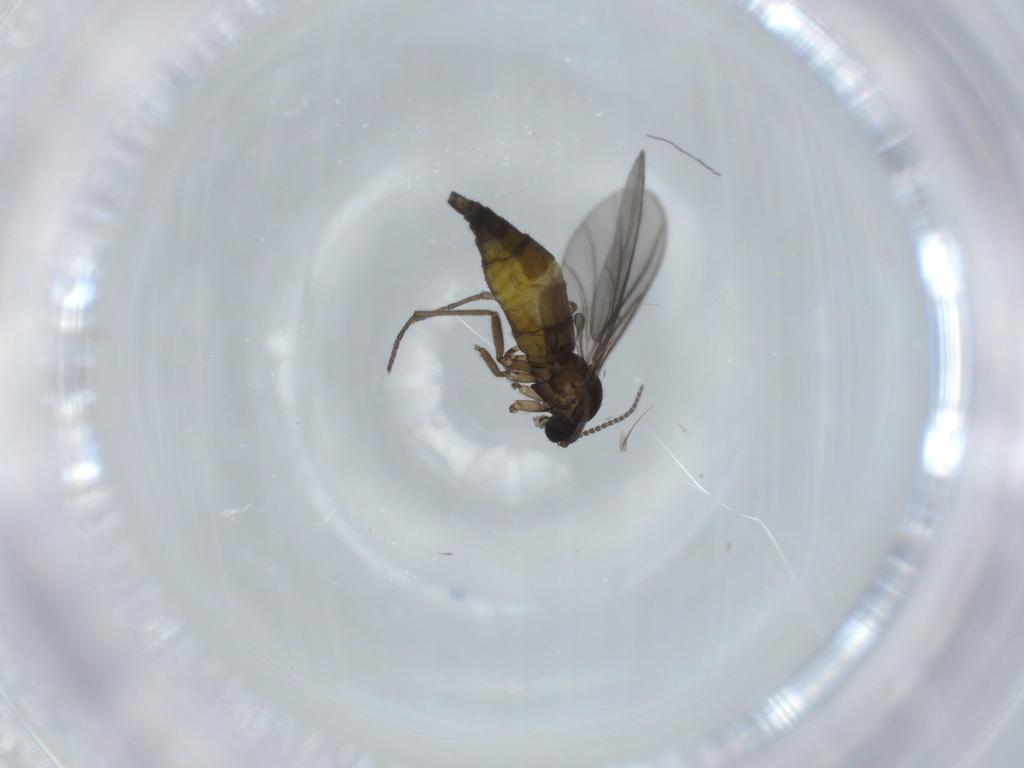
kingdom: Animalia
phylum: Arthropoda
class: Insecta
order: Diptera
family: Sciaridae
